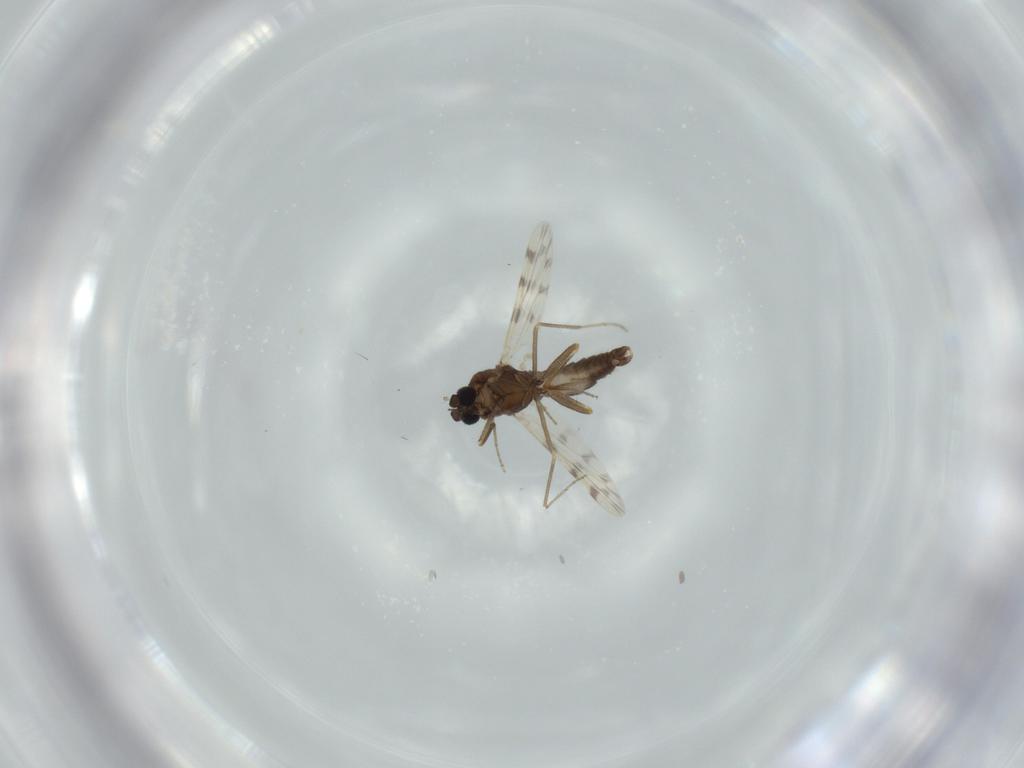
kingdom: Animalia
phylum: Arthropoda
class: Insecta
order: Diptera
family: Ceratopogonidae
